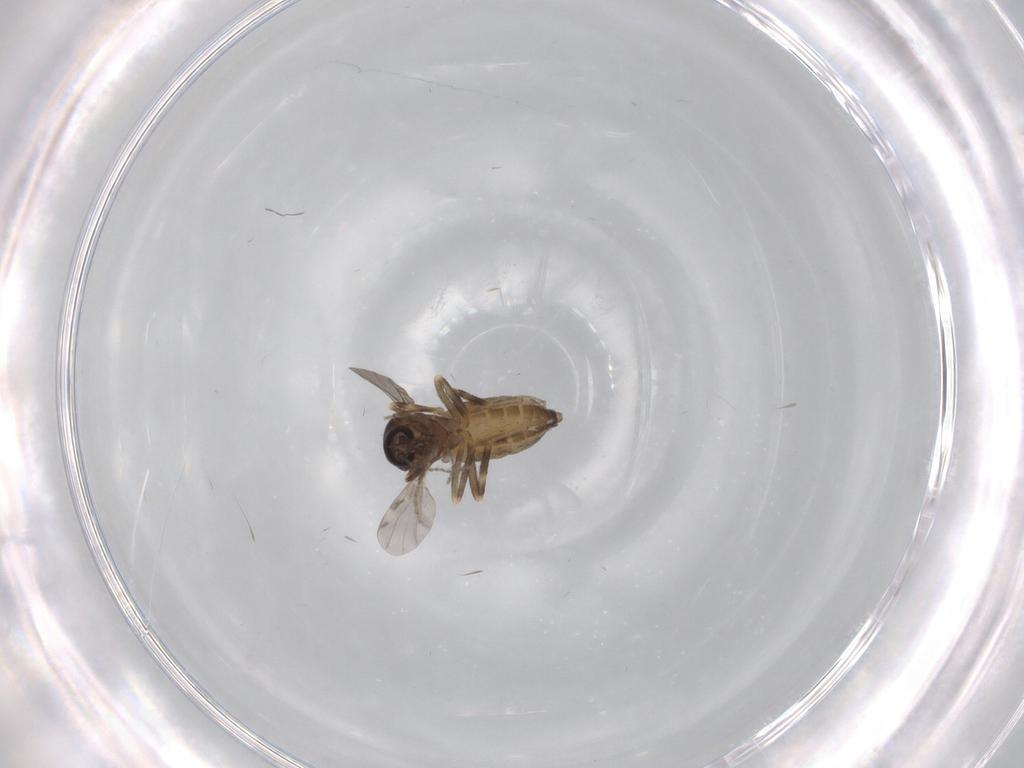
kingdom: Animalia
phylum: Arthropoda
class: Insecta
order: Diptera
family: Ceratopogonidae
